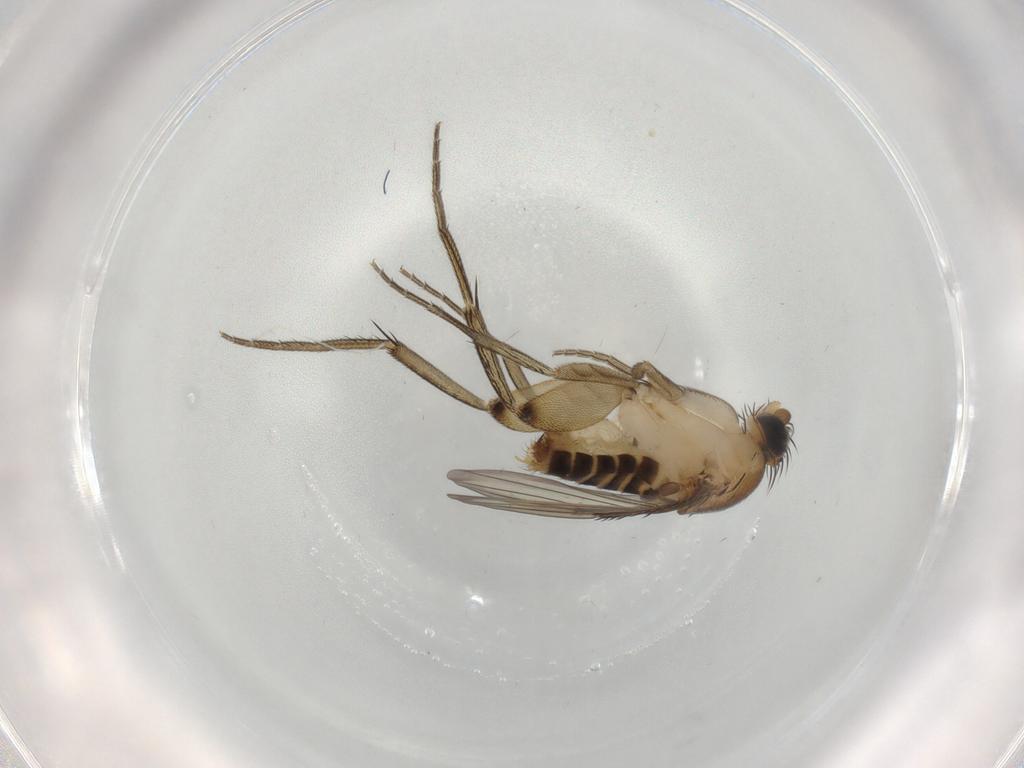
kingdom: Animalia
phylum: Arthropoda
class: Insecta
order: Diptera
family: Phoridae
